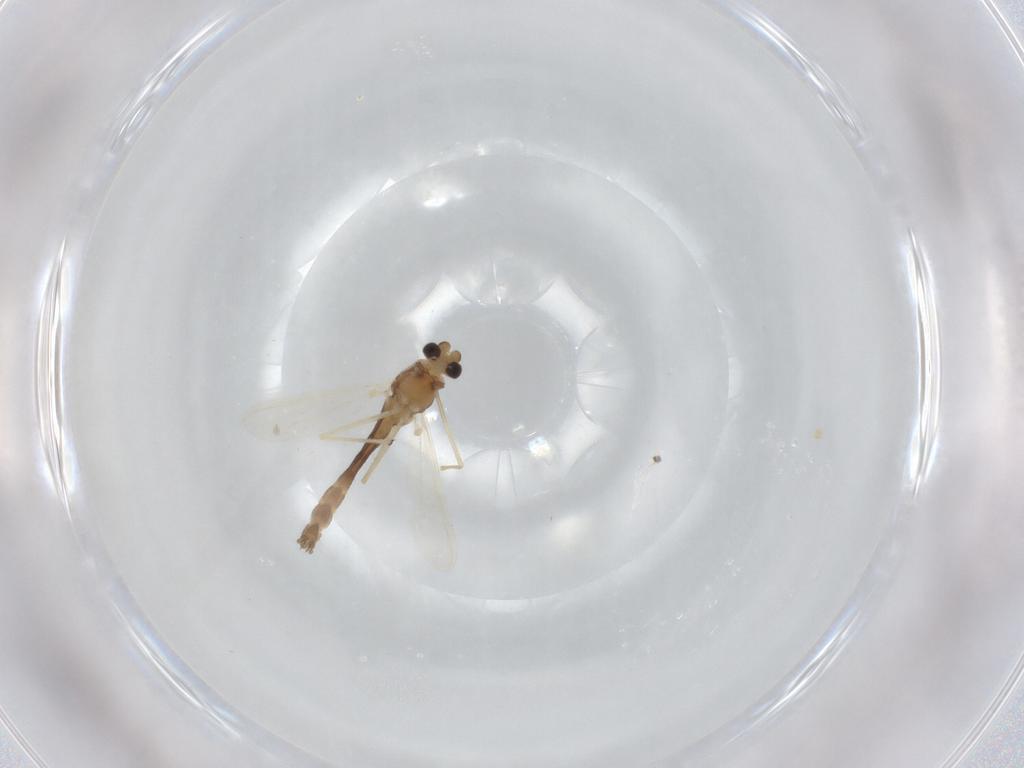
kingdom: Animalia
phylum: Arthropoda
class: Insecta
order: Diptera
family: Chironomidae
